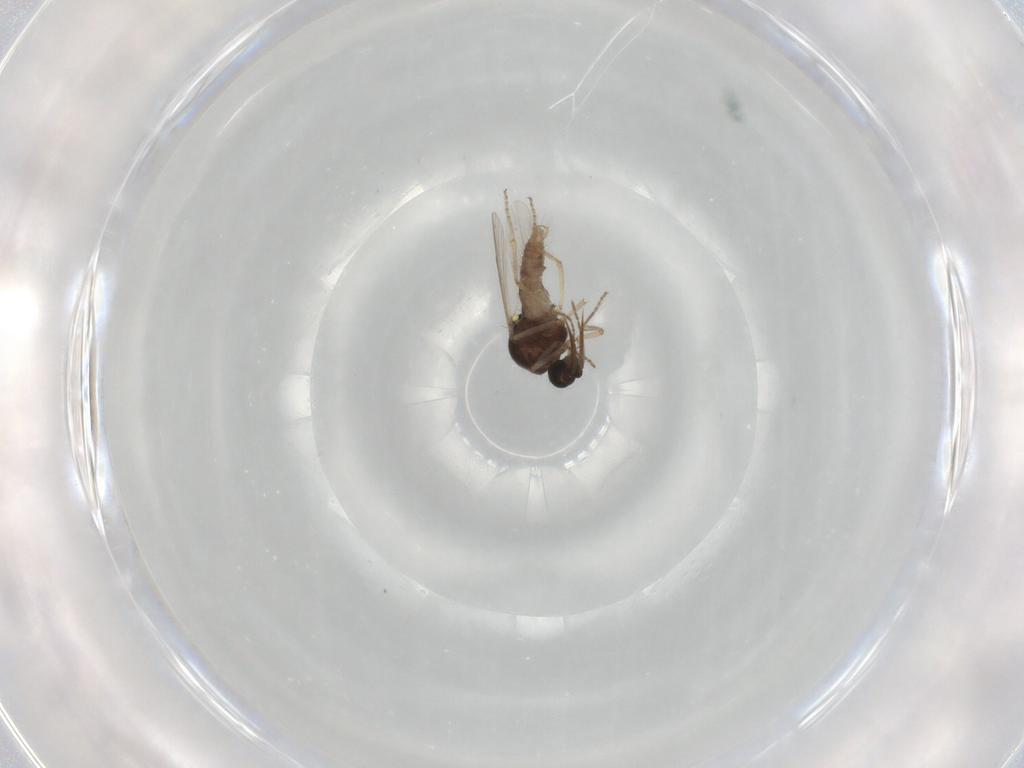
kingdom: Animalia
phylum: Arthropoda
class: Insecta
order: Diptera
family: Ceratopogonidae
